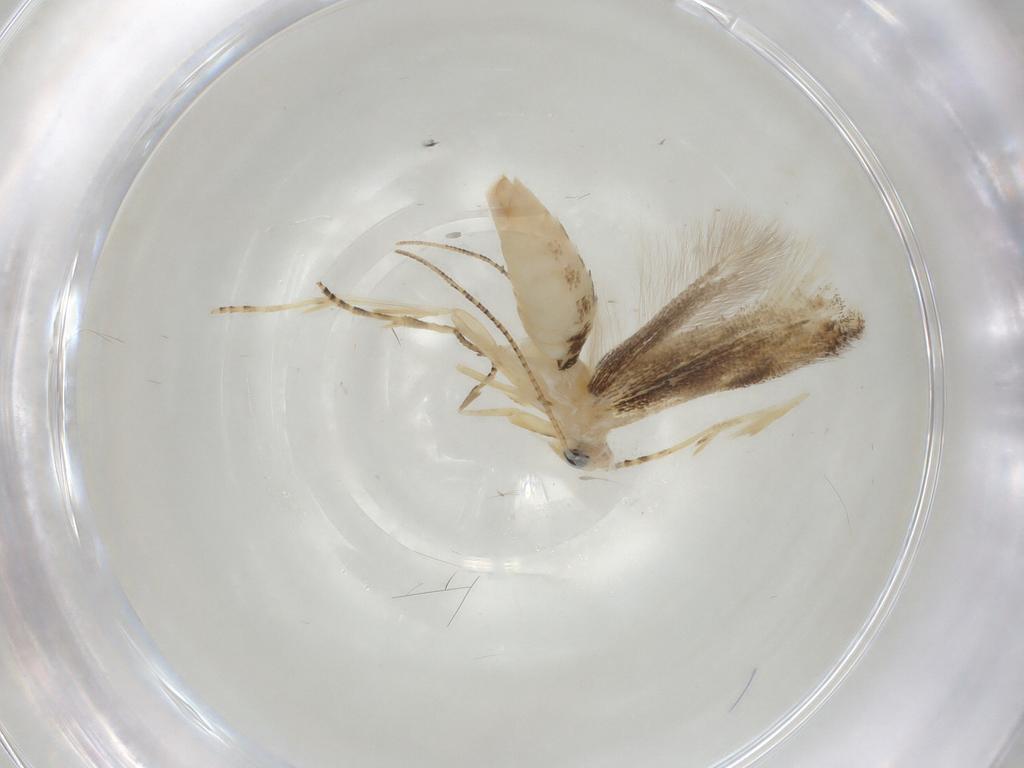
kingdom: Animalia
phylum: Arthropoda
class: Insecta
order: Lepidoptera
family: Bucculatricidae
